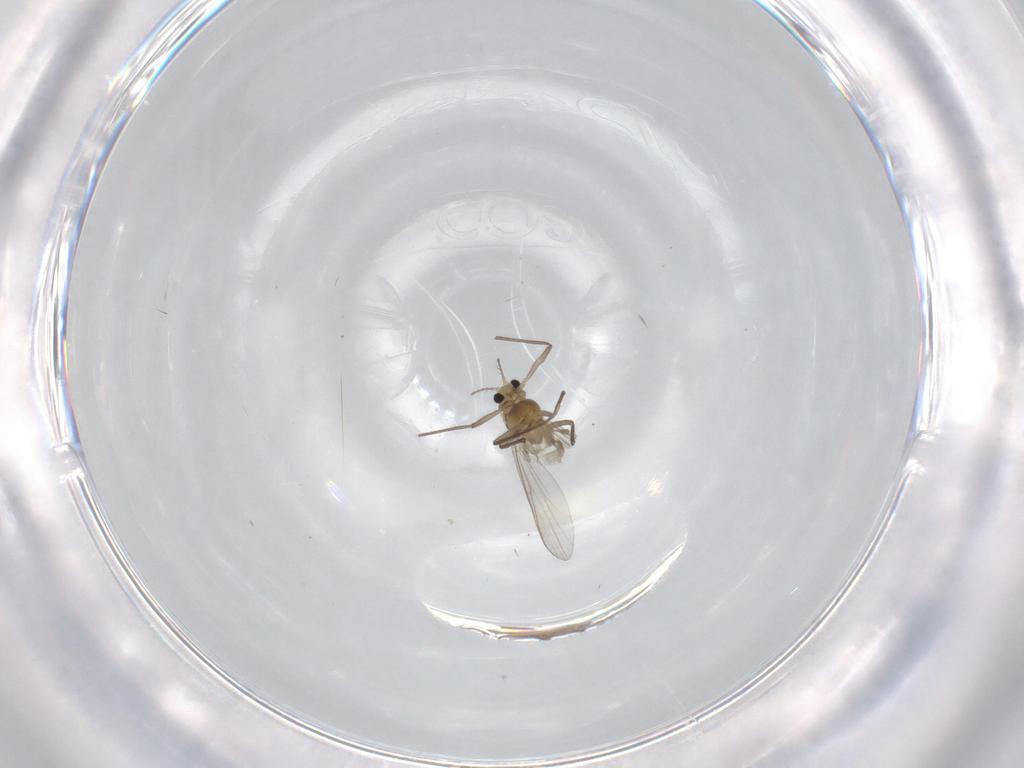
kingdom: Animalia
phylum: Arthropoda
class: Insecta
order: Diptera
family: Chironomidae
